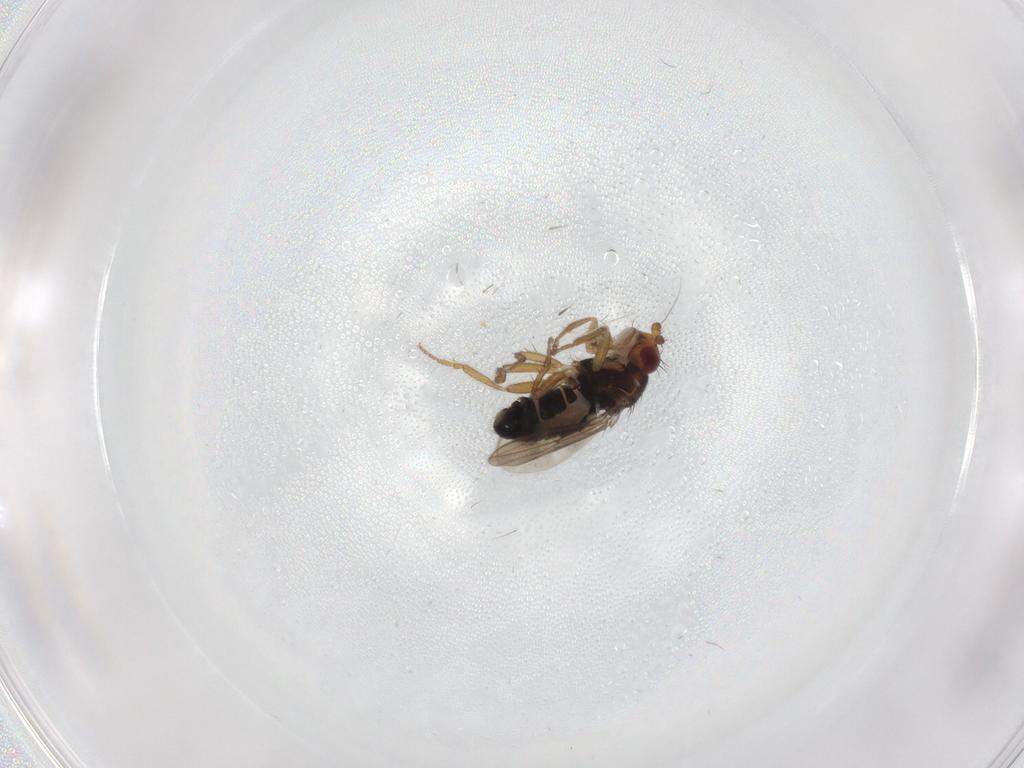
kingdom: Animalia
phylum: Arthropoda
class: Insecta
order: Diptera
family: Sphaeroceridae
